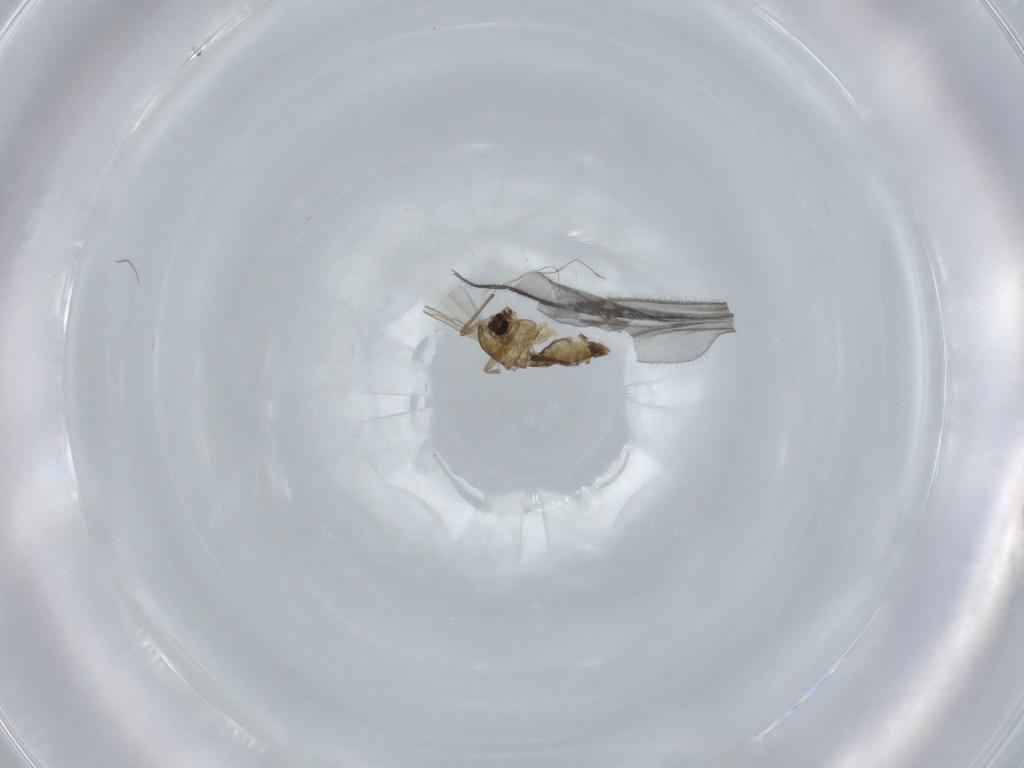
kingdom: Animalia
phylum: Arthropoda
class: Insecta
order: Diptera
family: Chironomidae
